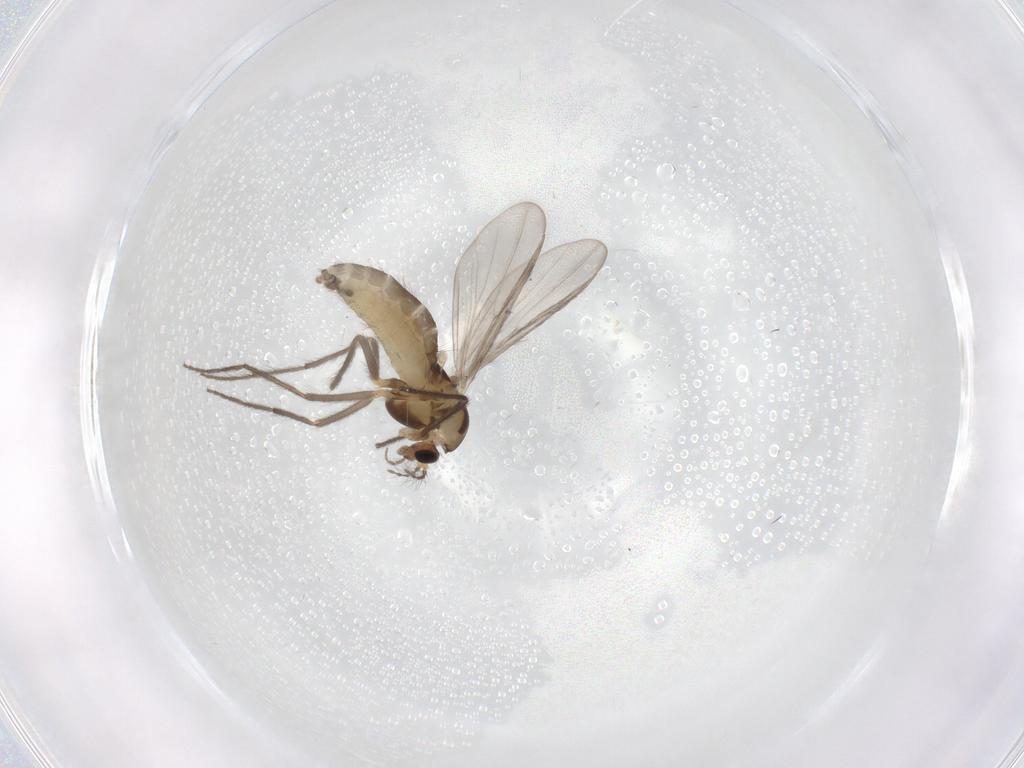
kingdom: Animalia
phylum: Arthropoda
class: Insecta
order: Diptera
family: Chironomidae
